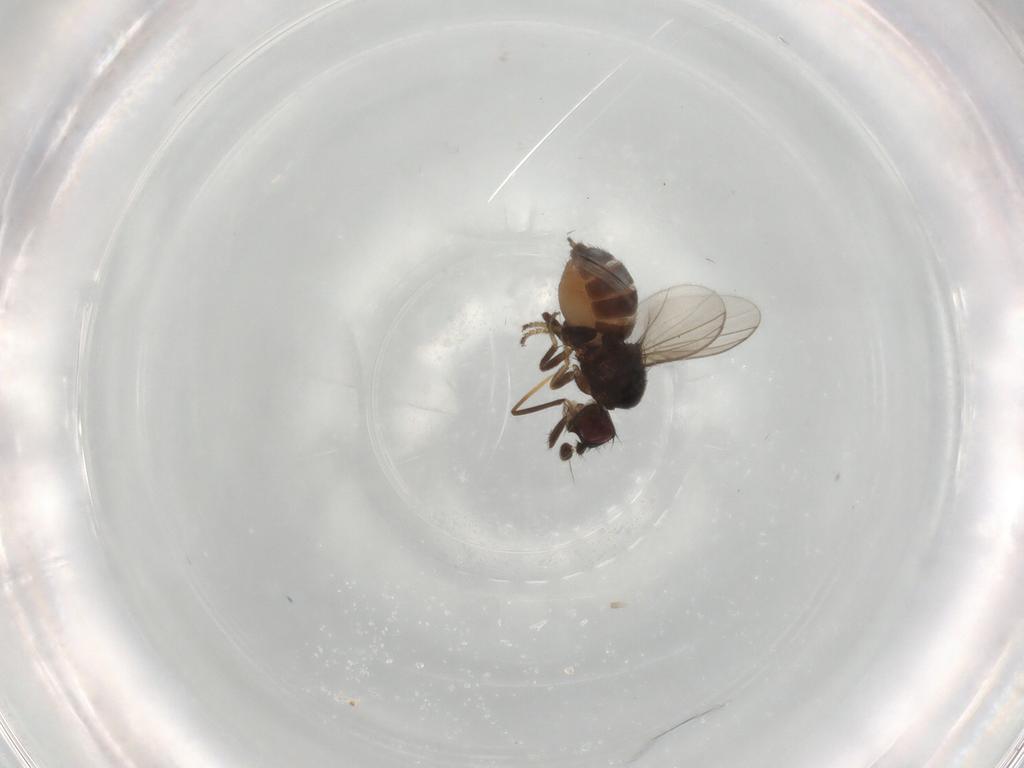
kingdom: Animalia
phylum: Arthropoda
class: Insecta
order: Diptera
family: Milichiidae
